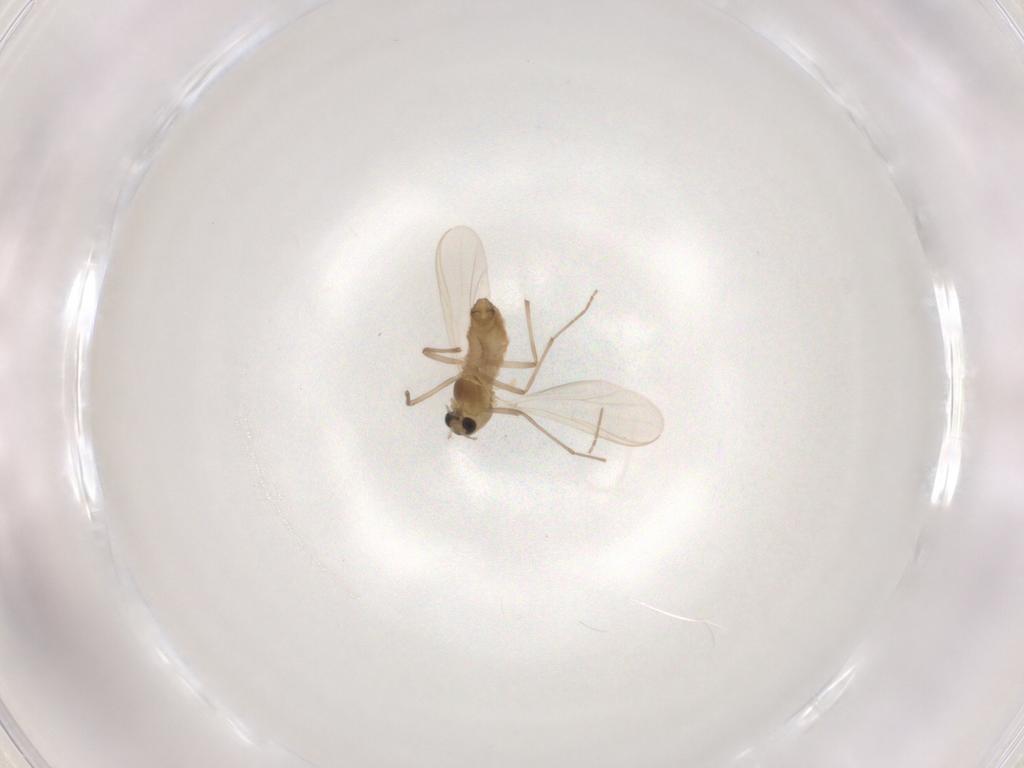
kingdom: Animalia
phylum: Arthropoda
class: Insecta
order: Diptera
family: Chironomidae
